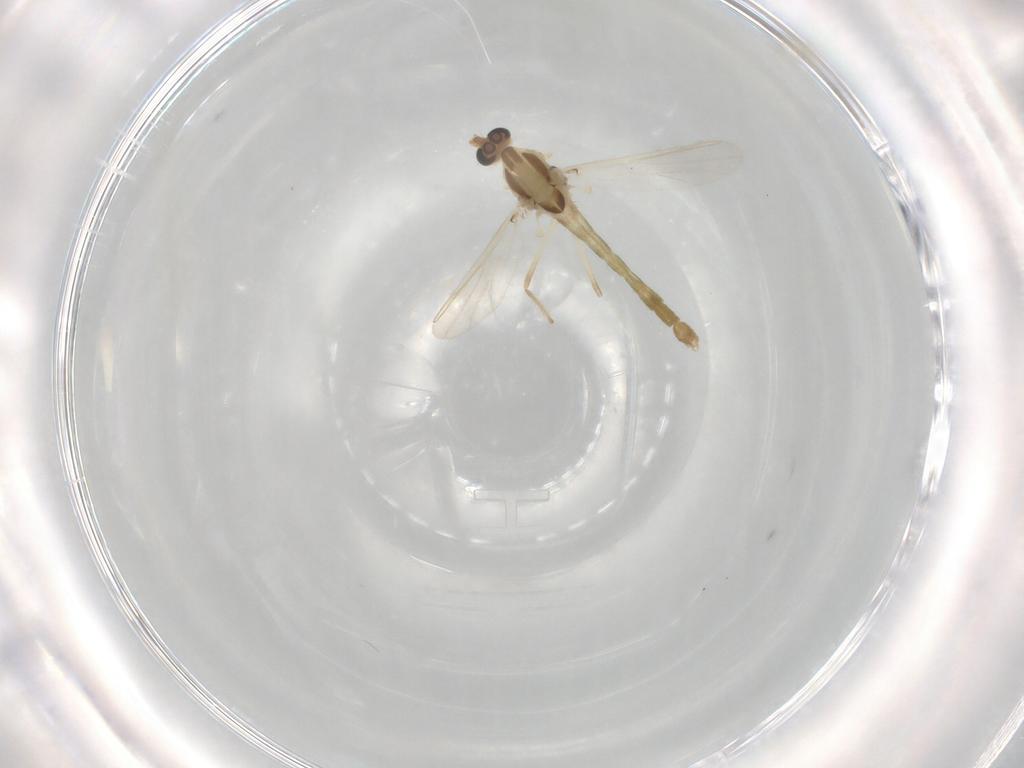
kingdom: Animalia
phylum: Arthropoda
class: Insecta
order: Diptera
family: Chironomidae
